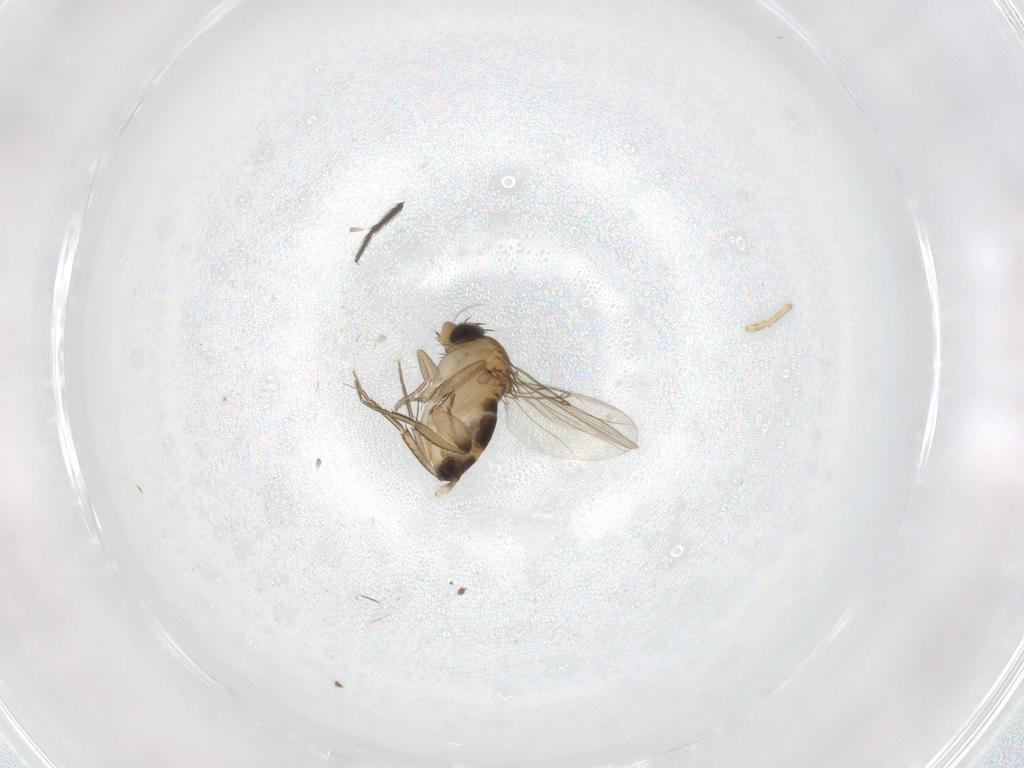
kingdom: Animalia
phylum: Arthropoda
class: Insecta
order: Diptera
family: Phoridae
